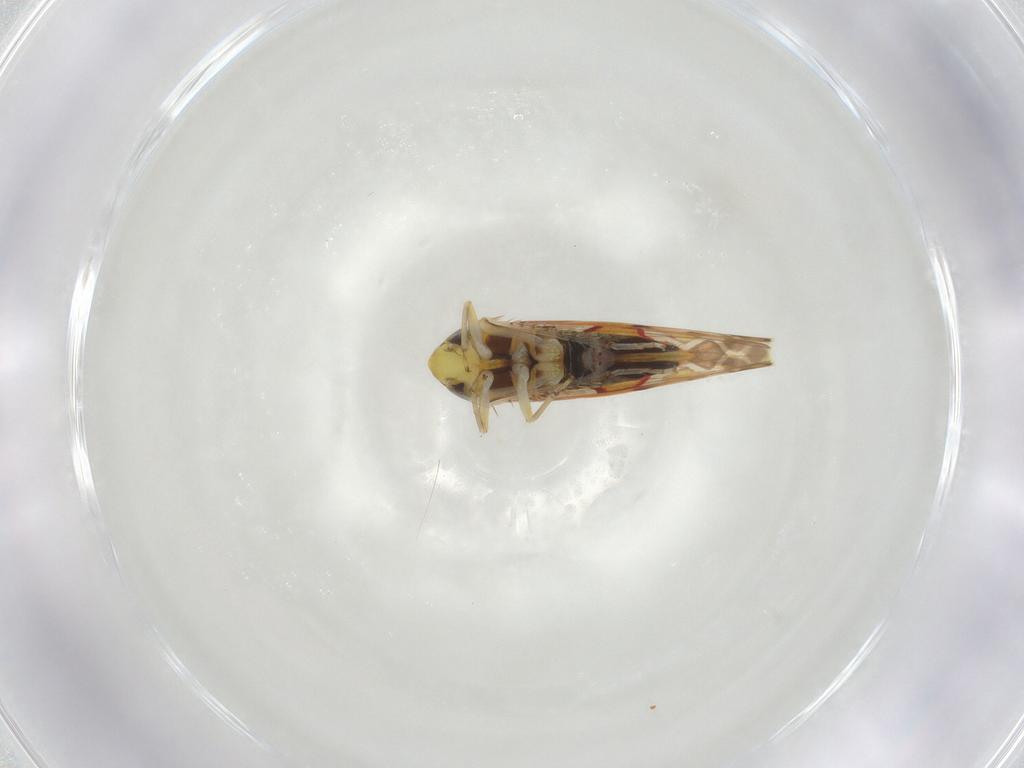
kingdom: Animalia
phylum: Arthropoda
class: Insecta
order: Hemiptera
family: Cicadellidae
